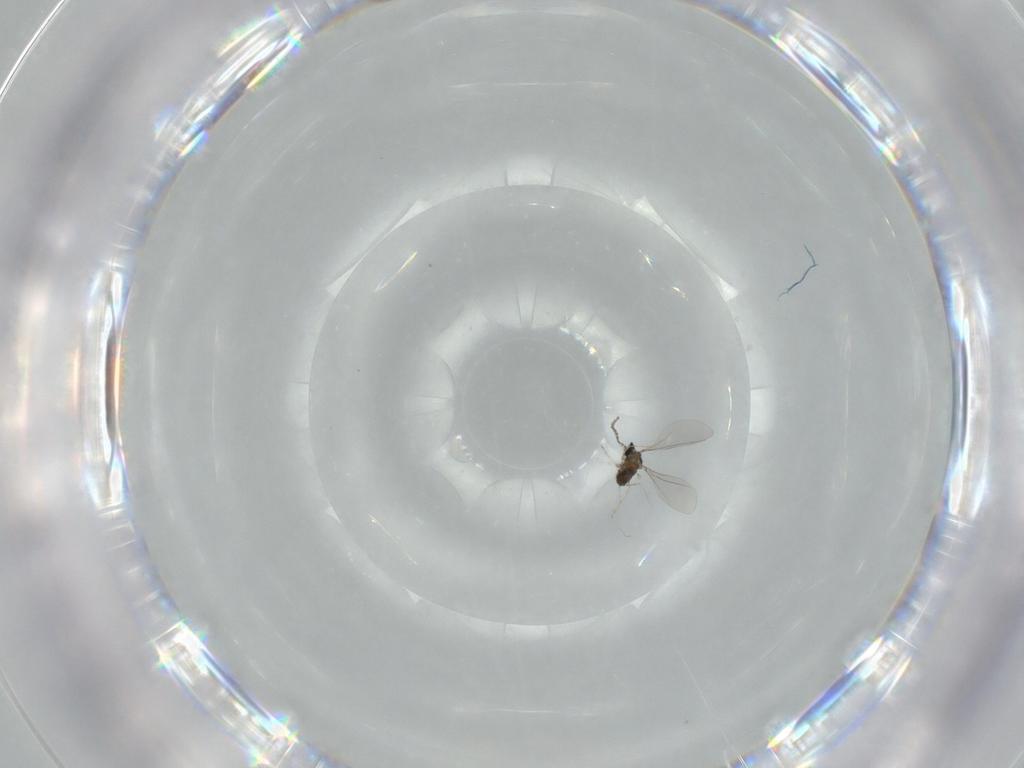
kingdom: Animalia
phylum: Arthropoda
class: Insecta
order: Diptera
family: Cecidomyiidae
